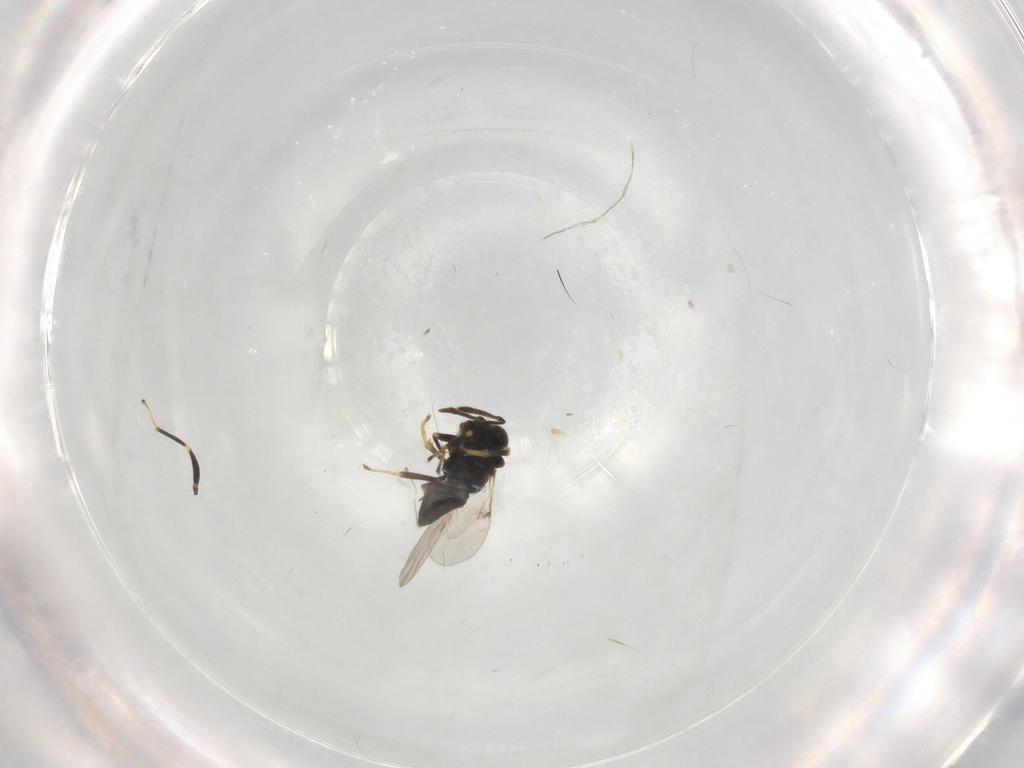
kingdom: Animalia
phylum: Arthropoda
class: Insecta
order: Hymenoptera
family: Encyrtidae
